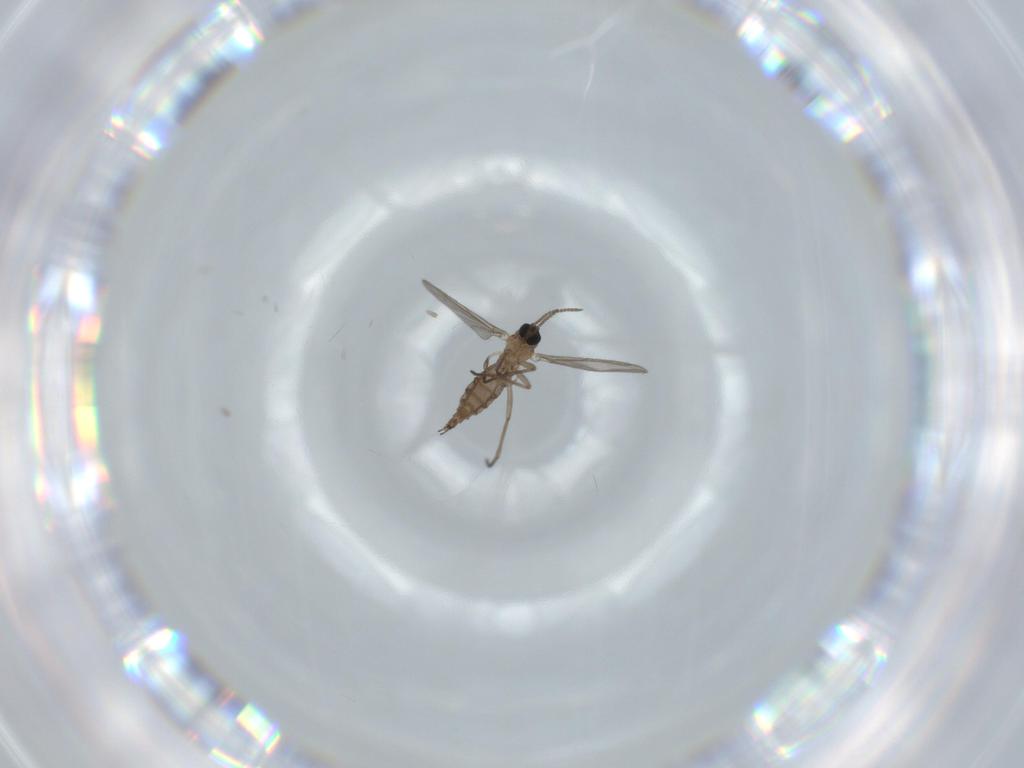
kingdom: Animalia
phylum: Arthropoda
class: Insecta
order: Diptera
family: Sciaridae
